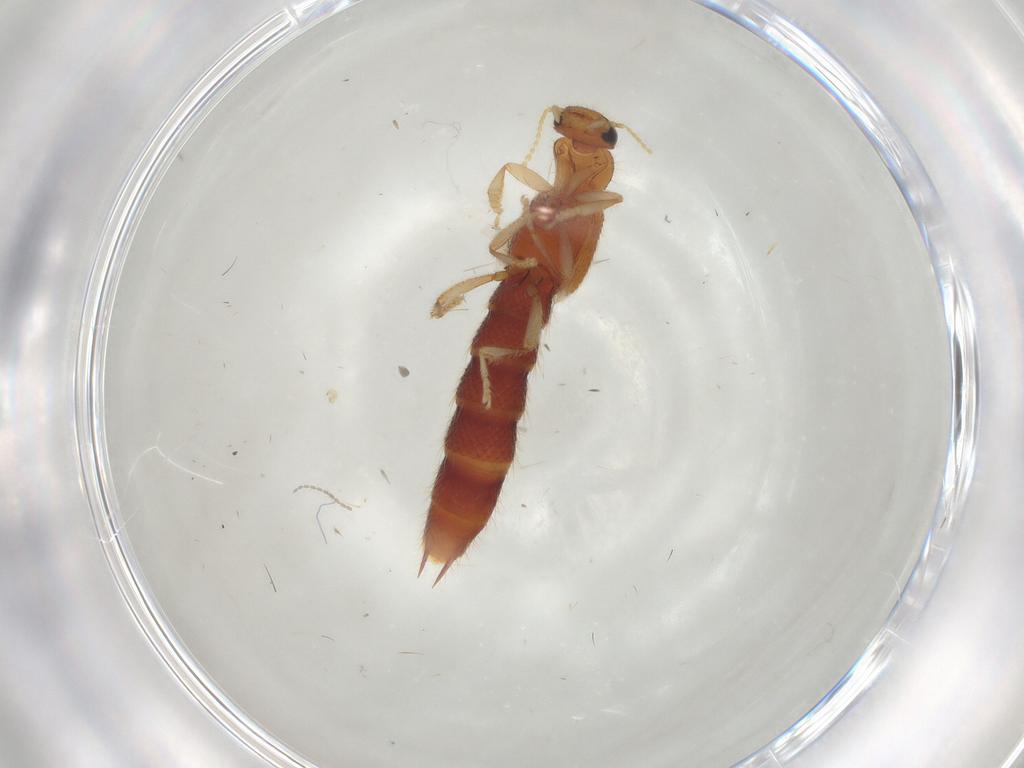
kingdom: Animalia
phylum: Arthropoda
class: Insecta
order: Coleoptera
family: Staphylinidae
